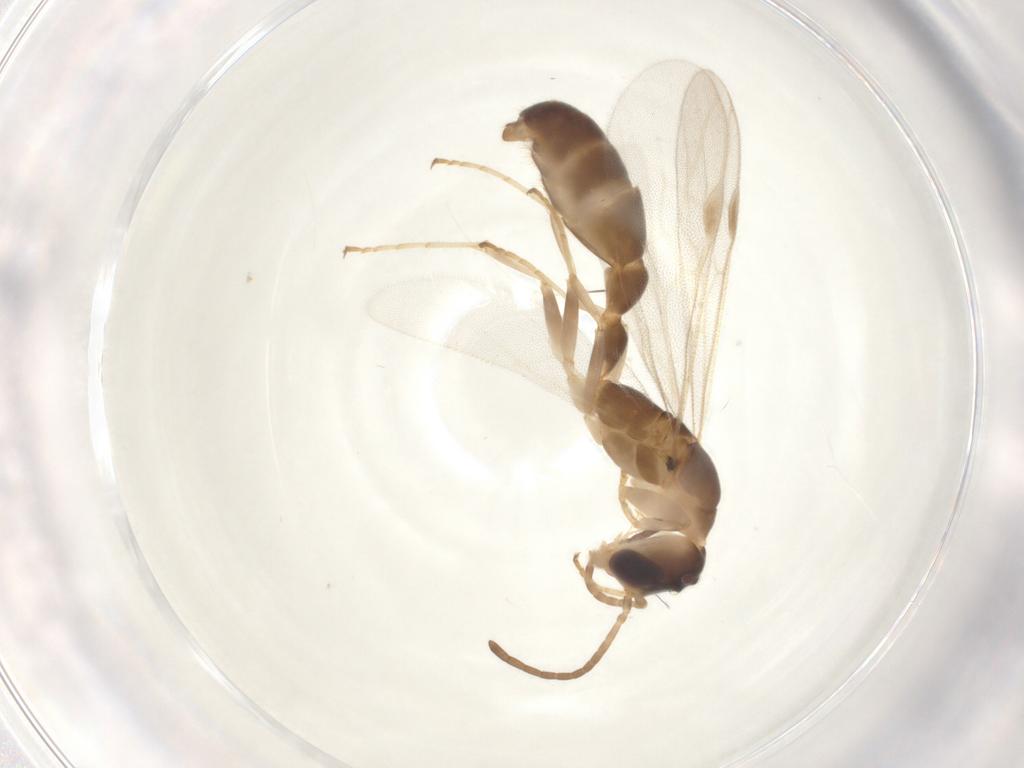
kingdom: Animalia
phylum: Arthropoda
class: Insecta
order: Hymenoptera
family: Formicidae
